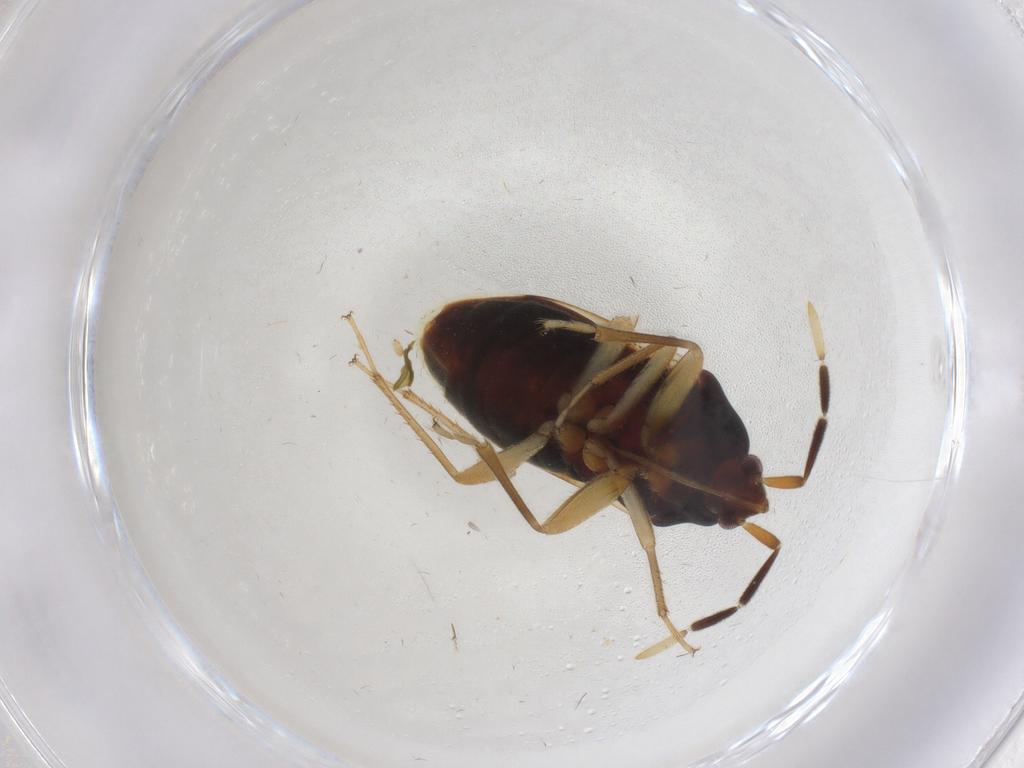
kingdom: Animalia
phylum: Arthropoda
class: Insecta
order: Hemiptera
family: Rhyparochromidae
